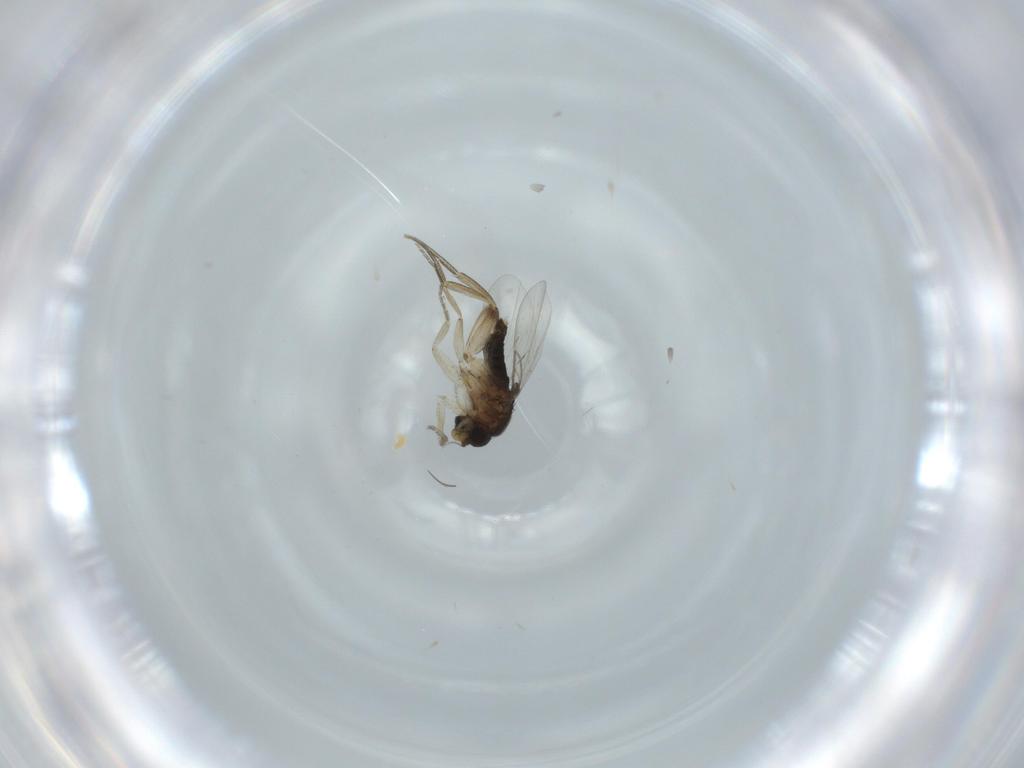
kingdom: Animalia
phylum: Arthropoda
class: Insecta
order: Diptera
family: Phoridae
